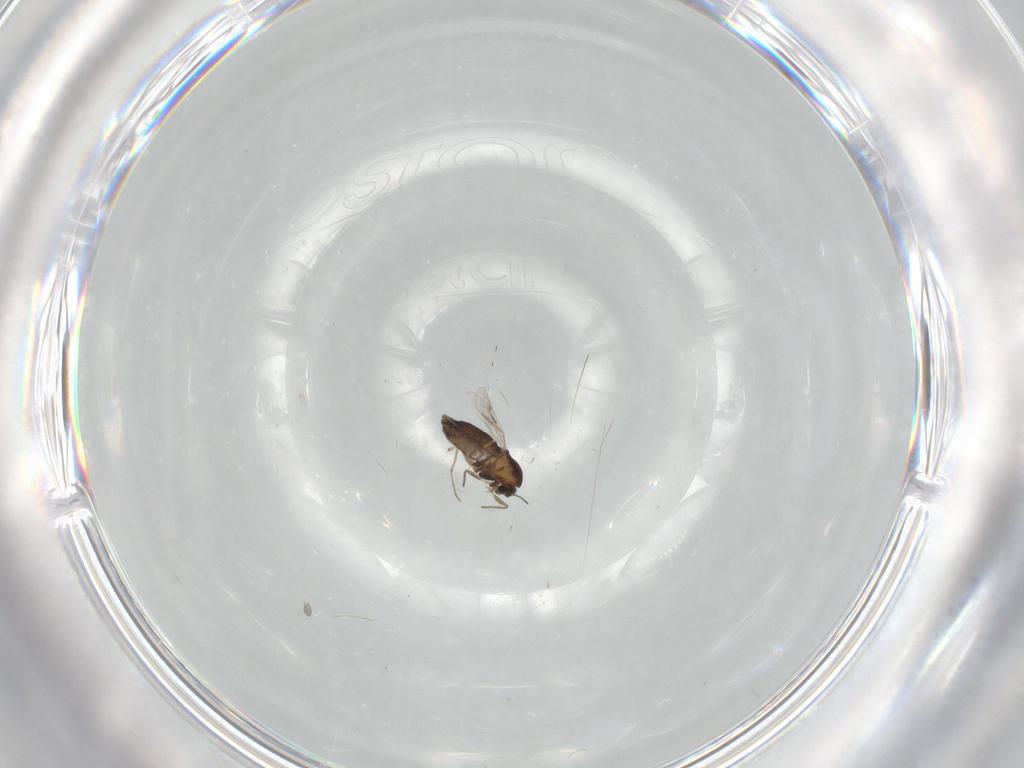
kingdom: Animalia
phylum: Arthropoda
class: Insecta
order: Diptera
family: Chironomidae
